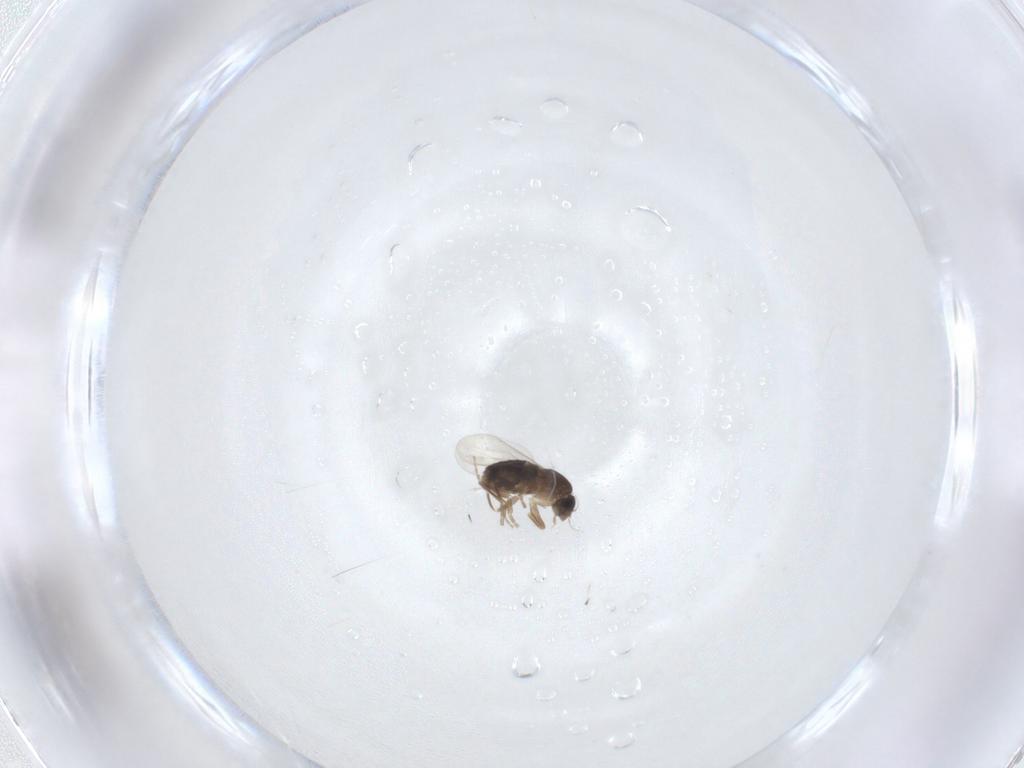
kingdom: Animalia
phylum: Arthropoda
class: Insecta
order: Diptera
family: Phoridae
